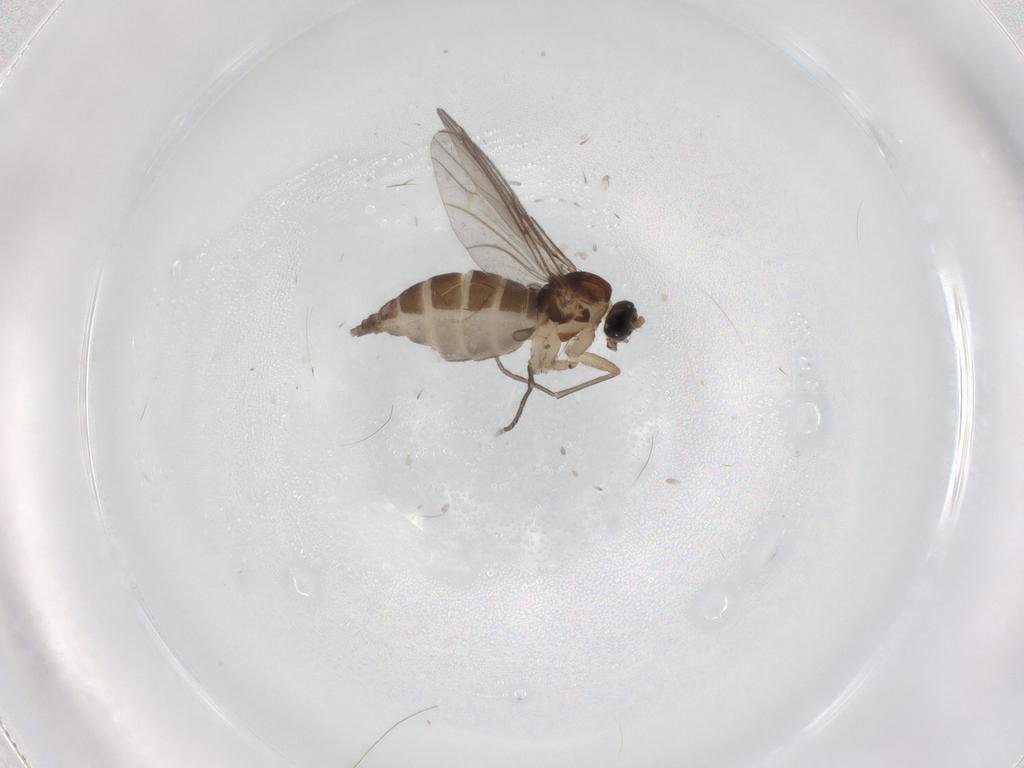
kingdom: Animalia
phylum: Arthropoda
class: Insecta
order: Diptera
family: Ceratopogonidae
